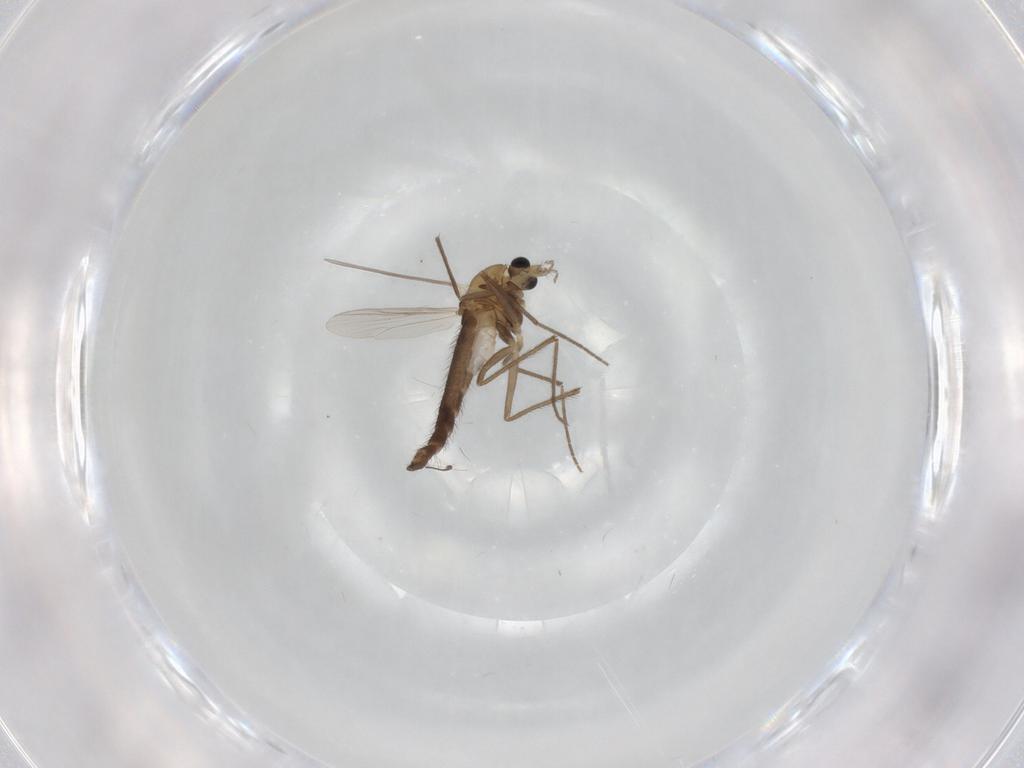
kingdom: Animalia
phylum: Arthropoda
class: Insecta
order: Diptera
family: Chironomidae
